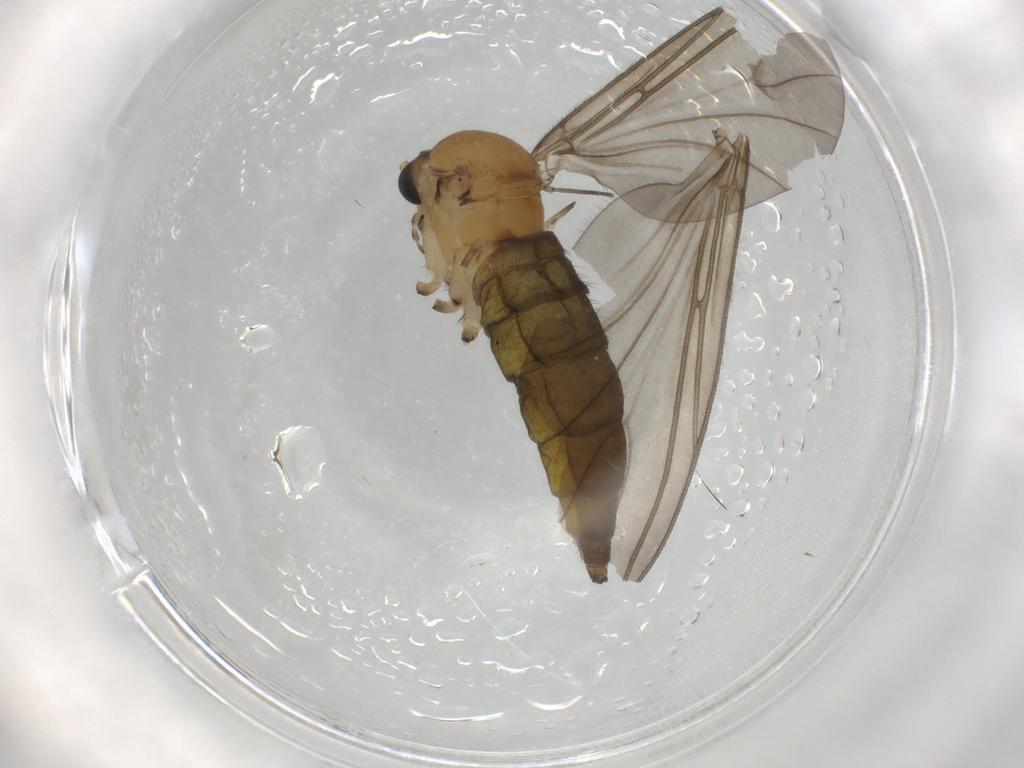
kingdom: Animalia
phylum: Arthropoda
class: Insecta
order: Diptera
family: Sciaridae
